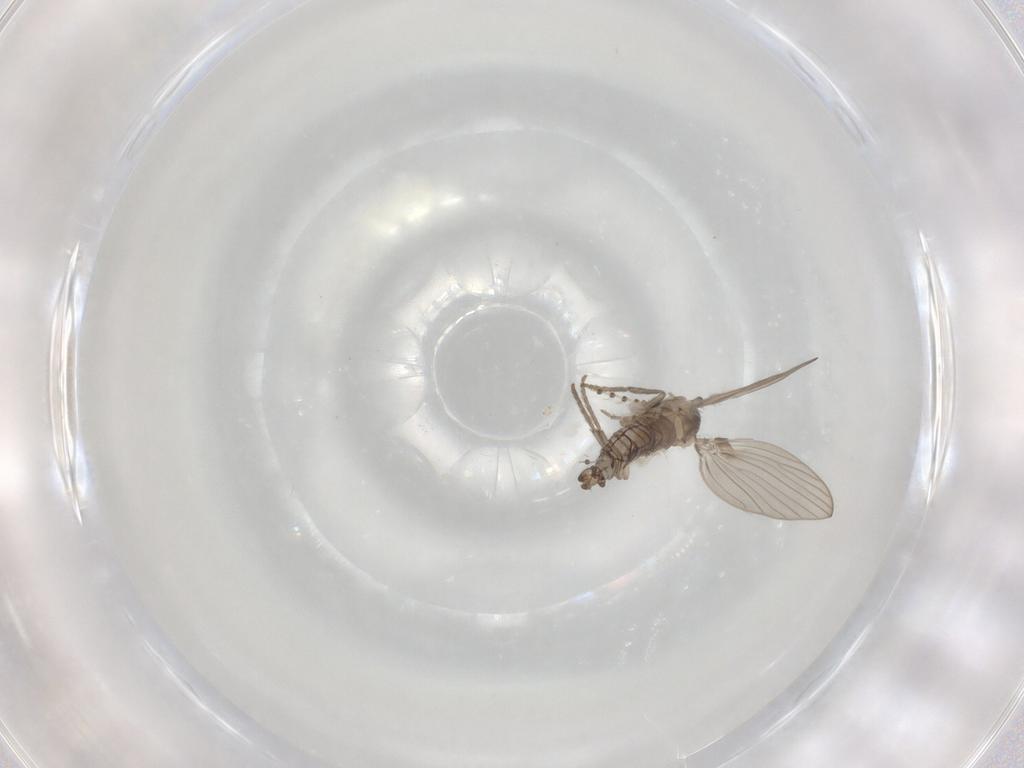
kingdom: Animalia
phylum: Arthropoda
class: Insecta
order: Diptera
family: Psychodidae
